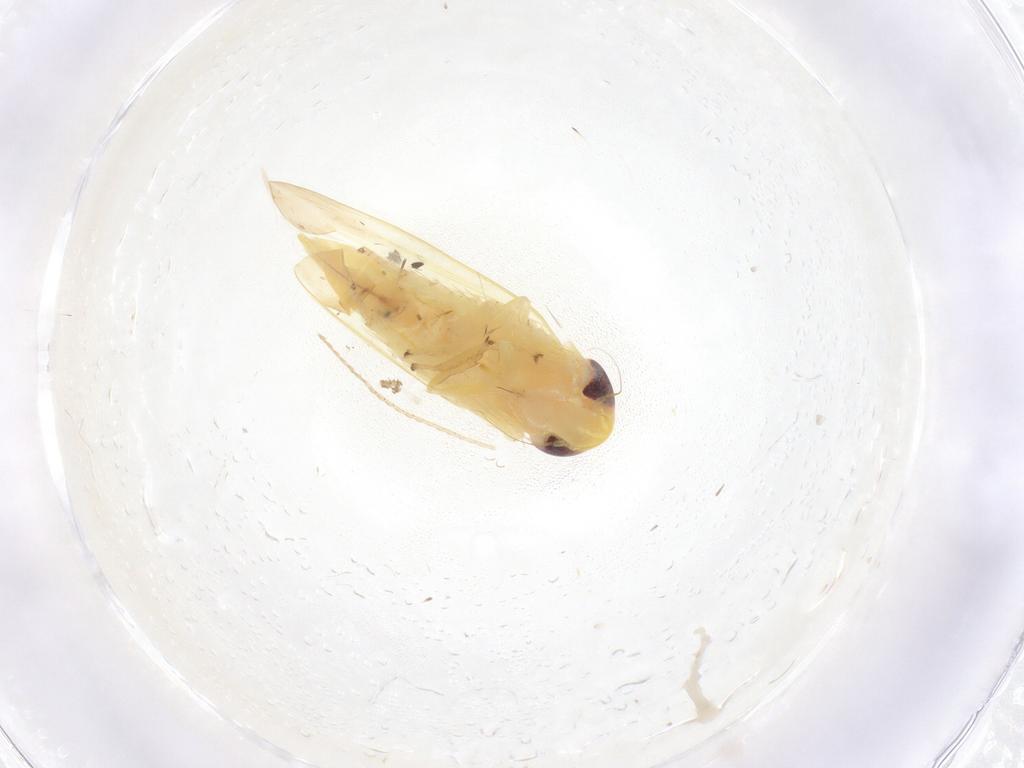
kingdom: Animalia
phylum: Arthropoda
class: Insecta
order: Hemiptera
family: Cicadellidae
